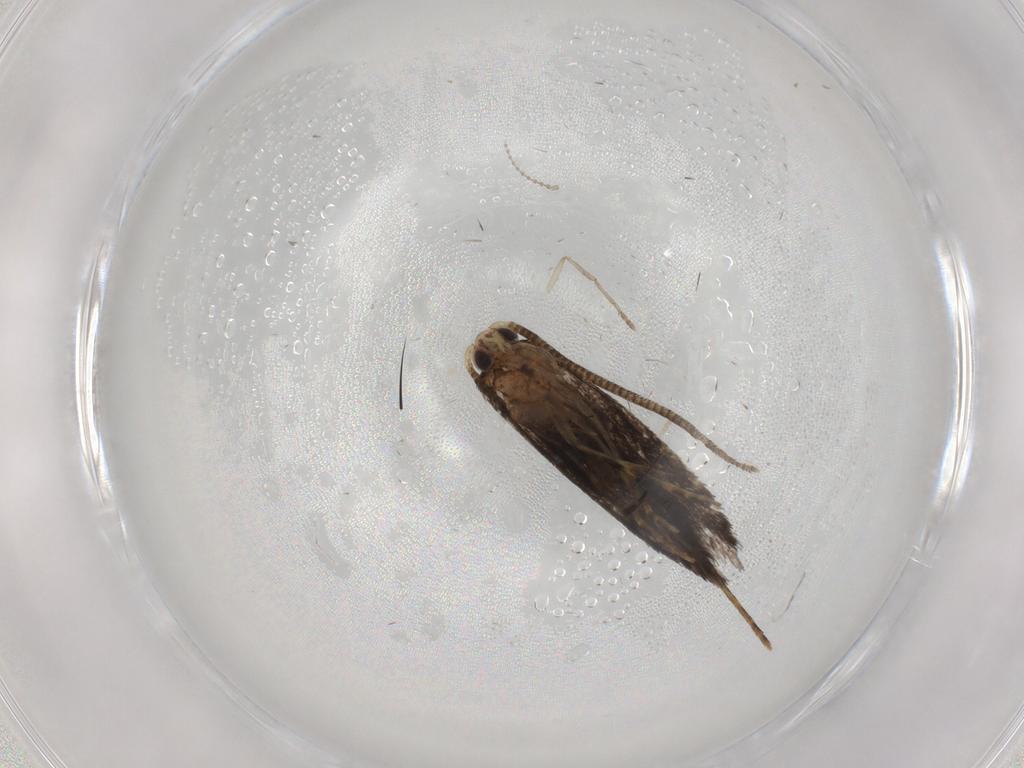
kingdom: Animalia
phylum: Arthropoda
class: Insecta
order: Lepidoptera
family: Tineidae
